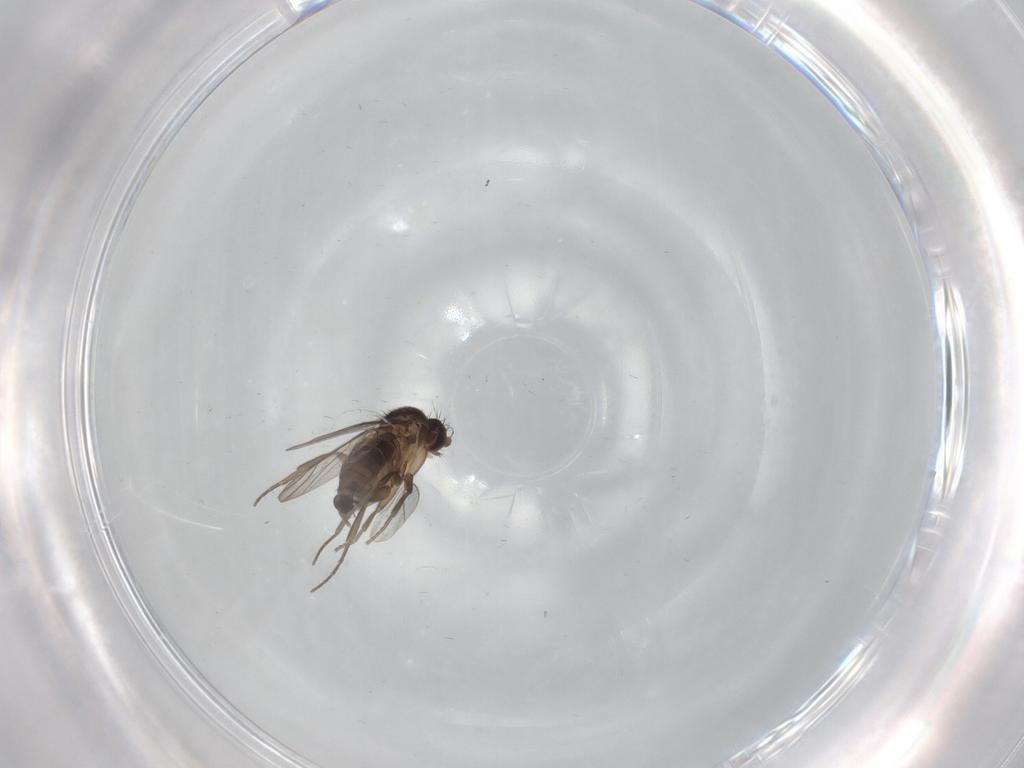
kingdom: Animalia
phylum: Arthropoda
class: Insecta
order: Diptera
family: Phoridae
